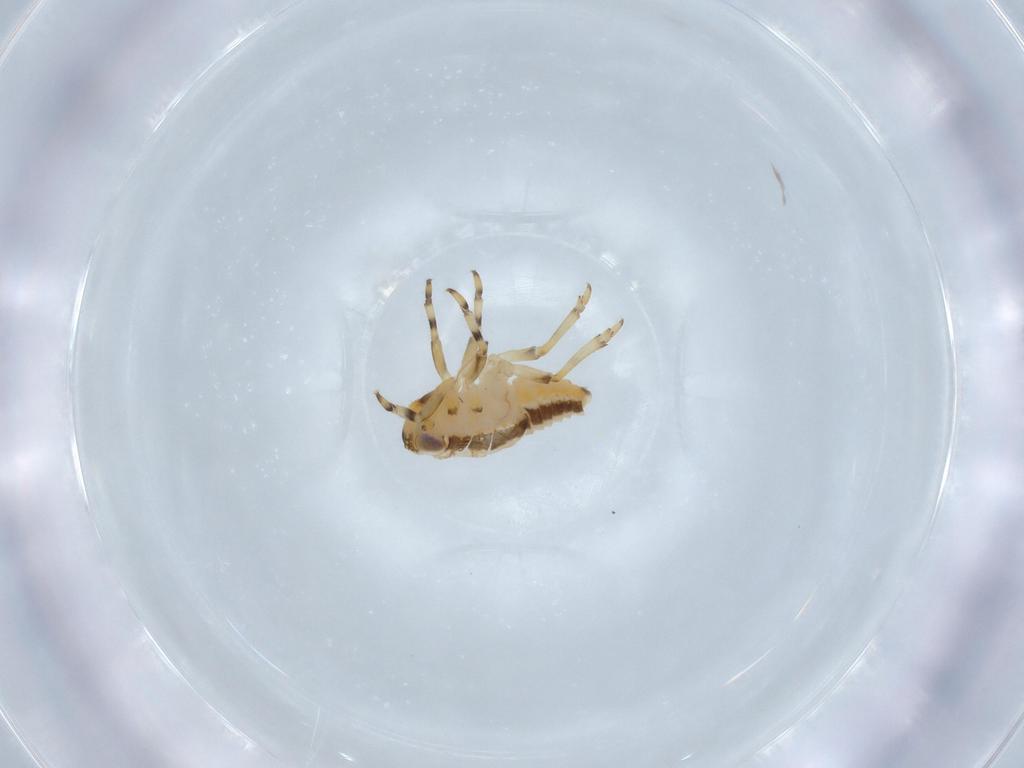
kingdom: Animalia
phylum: Arthropoda
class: Insecta
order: Hemiptera
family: Issidae
